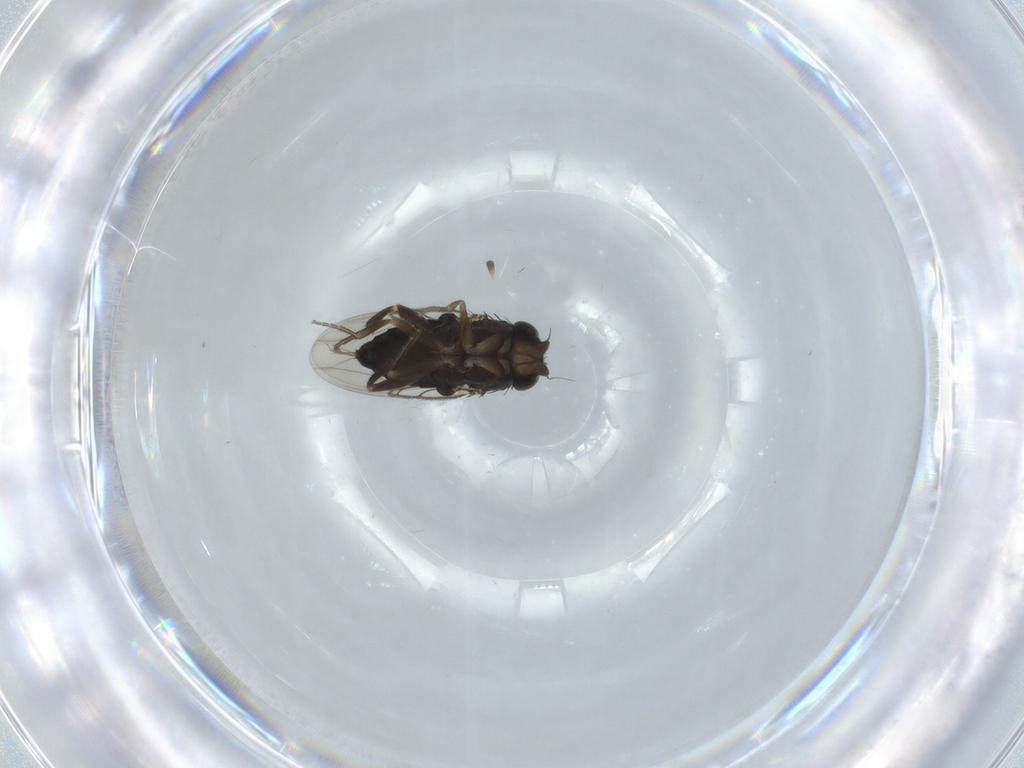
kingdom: Animalia
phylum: Arthropoda
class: Insecta
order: Diptera
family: Phoridae
